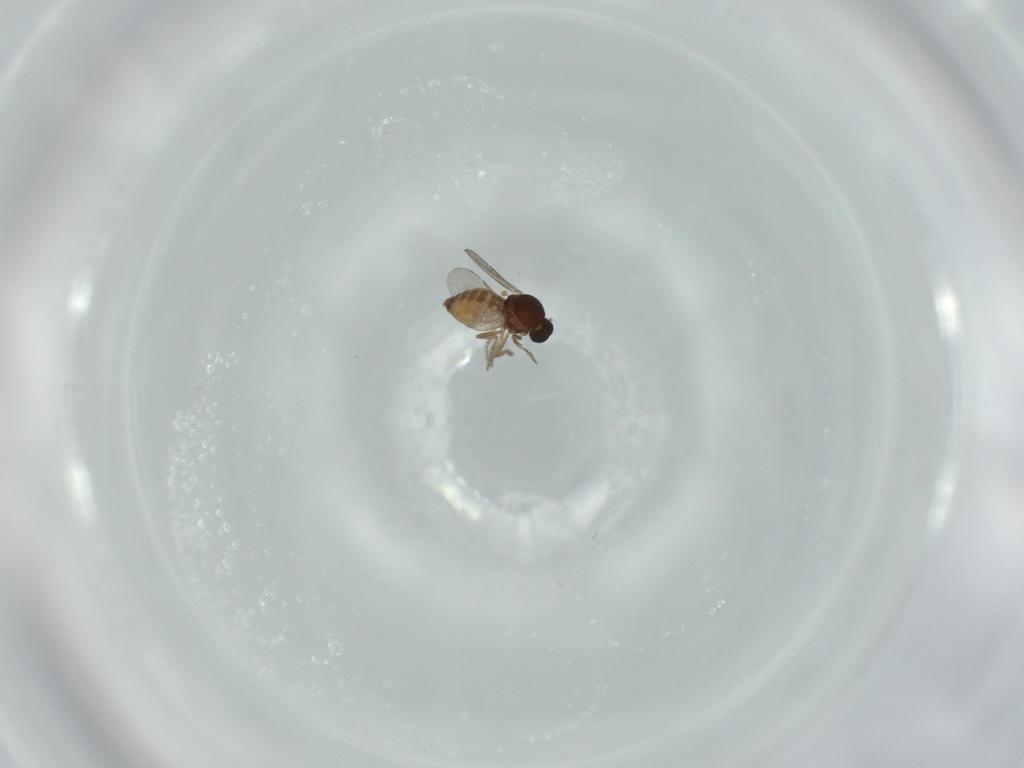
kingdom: Animalia
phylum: Arthropoda
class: Insecta
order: Diptera
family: Ceratopogonidae
